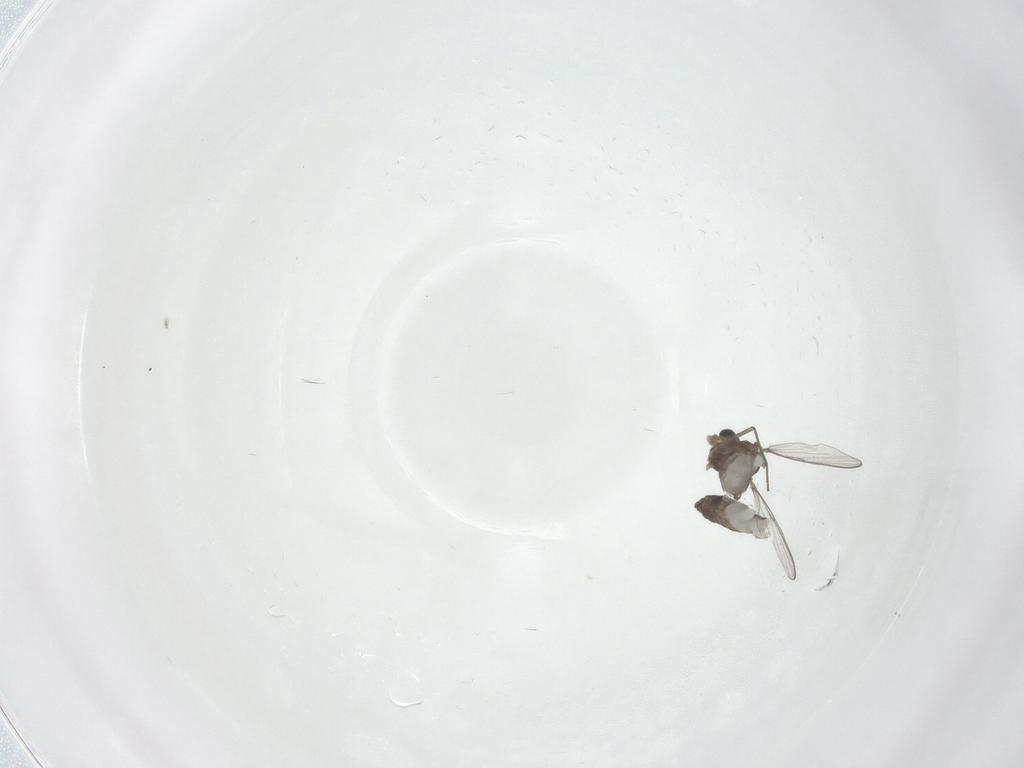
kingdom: Animalia
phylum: Arthropoda
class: Insecta
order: Diptera
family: Chironomidae
